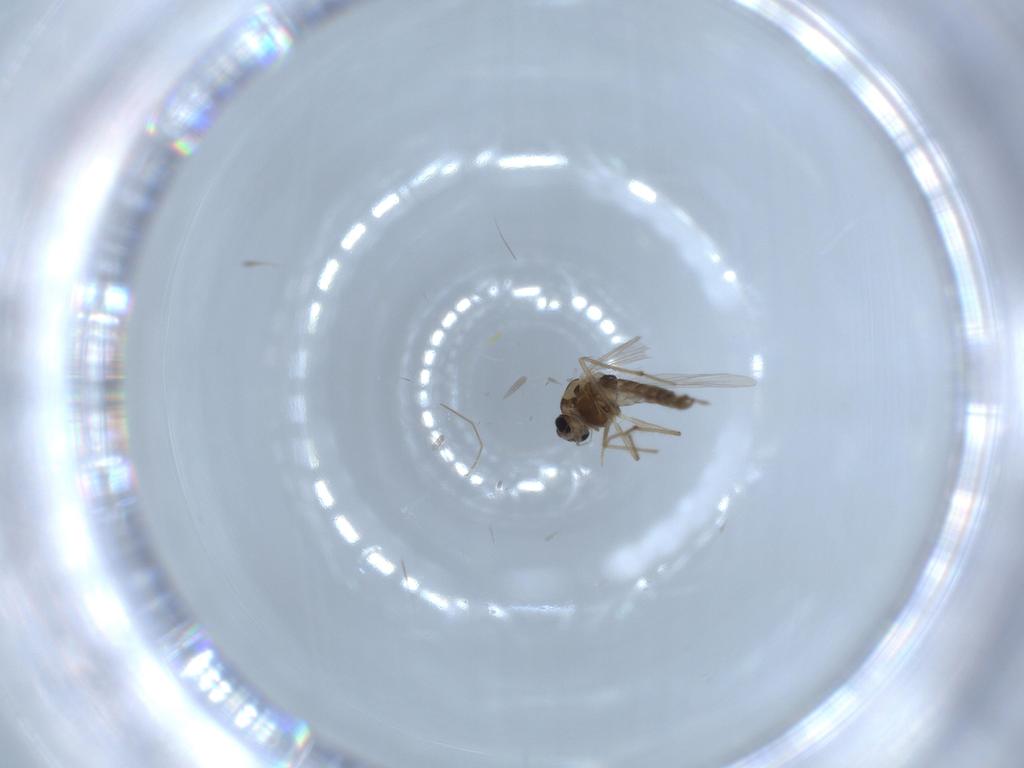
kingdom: Animalia
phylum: Arthropoda
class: Insecta
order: Diptera
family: Chironomidae
